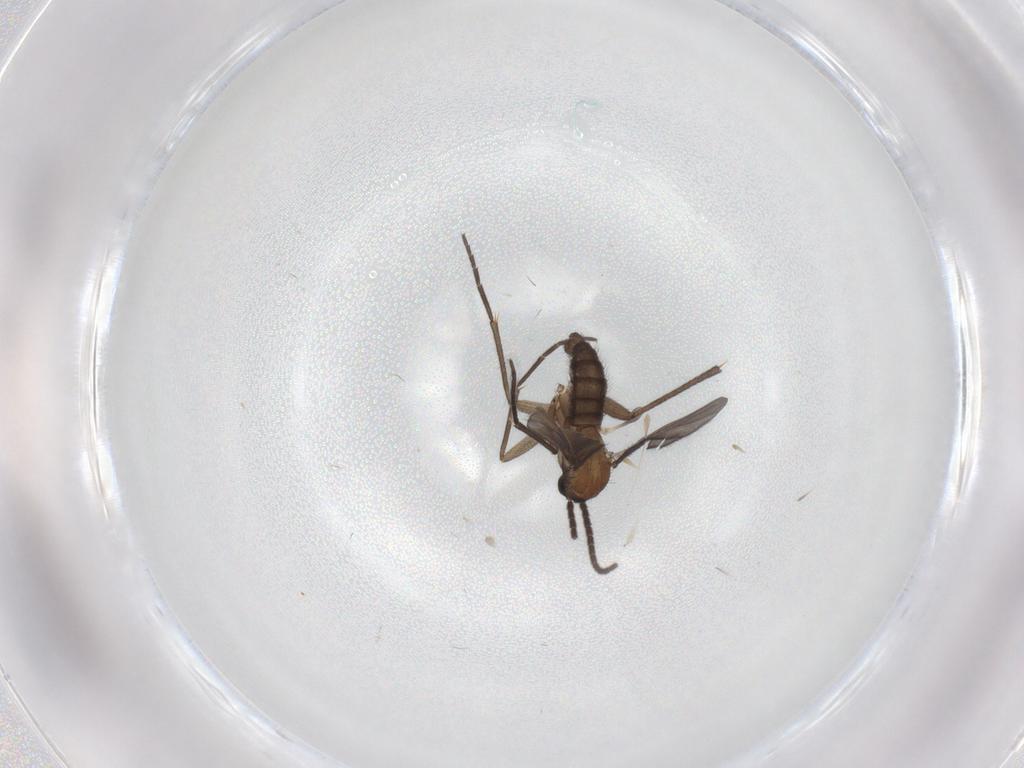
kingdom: Animalia
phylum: Arthropoda
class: Insecta
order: Diptera
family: Sciaridae
